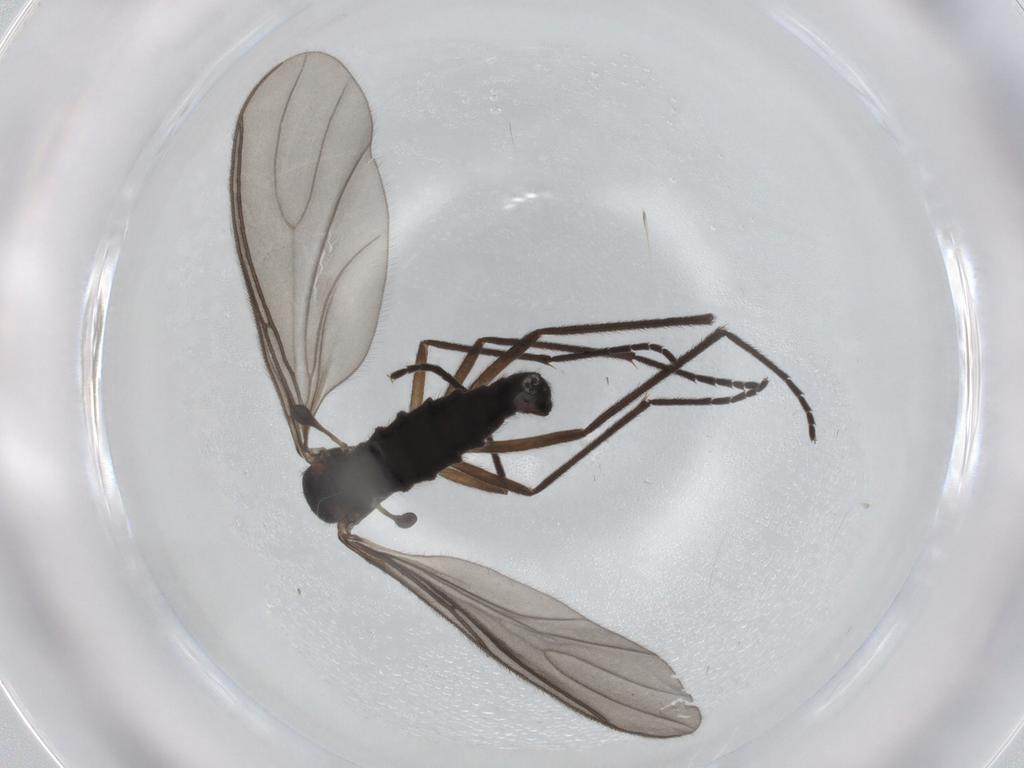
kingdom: Animalia
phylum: Arthropoda
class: Insecta
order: Diptera
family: Sciaridae
